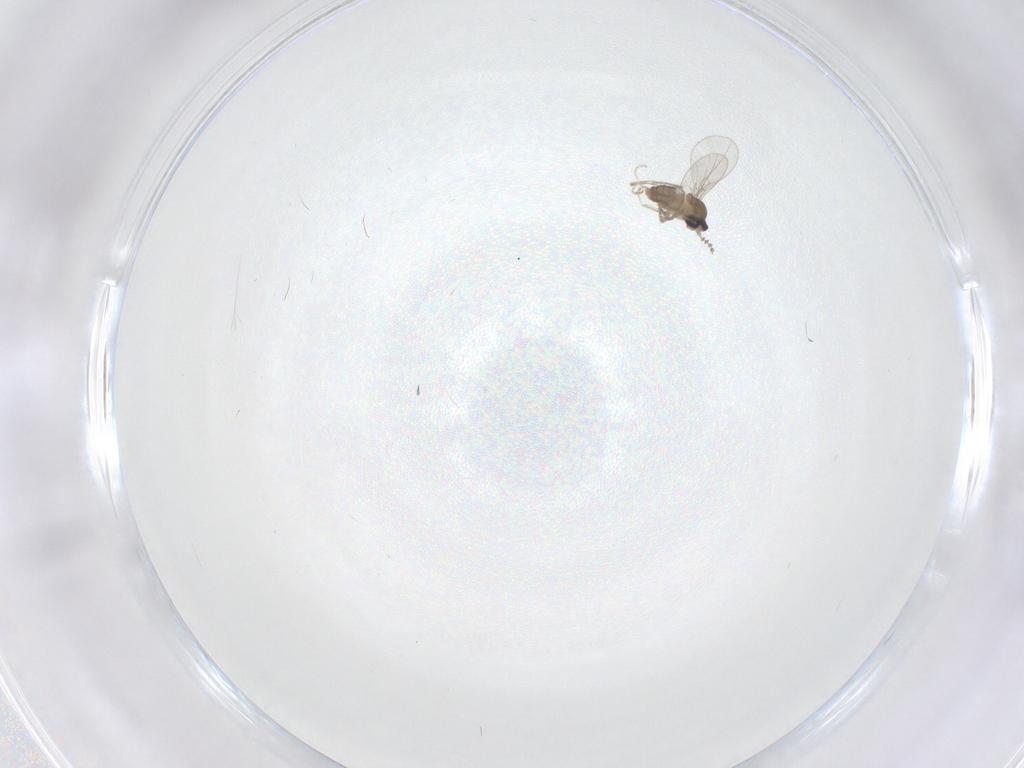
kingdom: Animalia
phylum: Arthropoda
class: Insecta
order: Diptera
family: Cecidomyiidae
